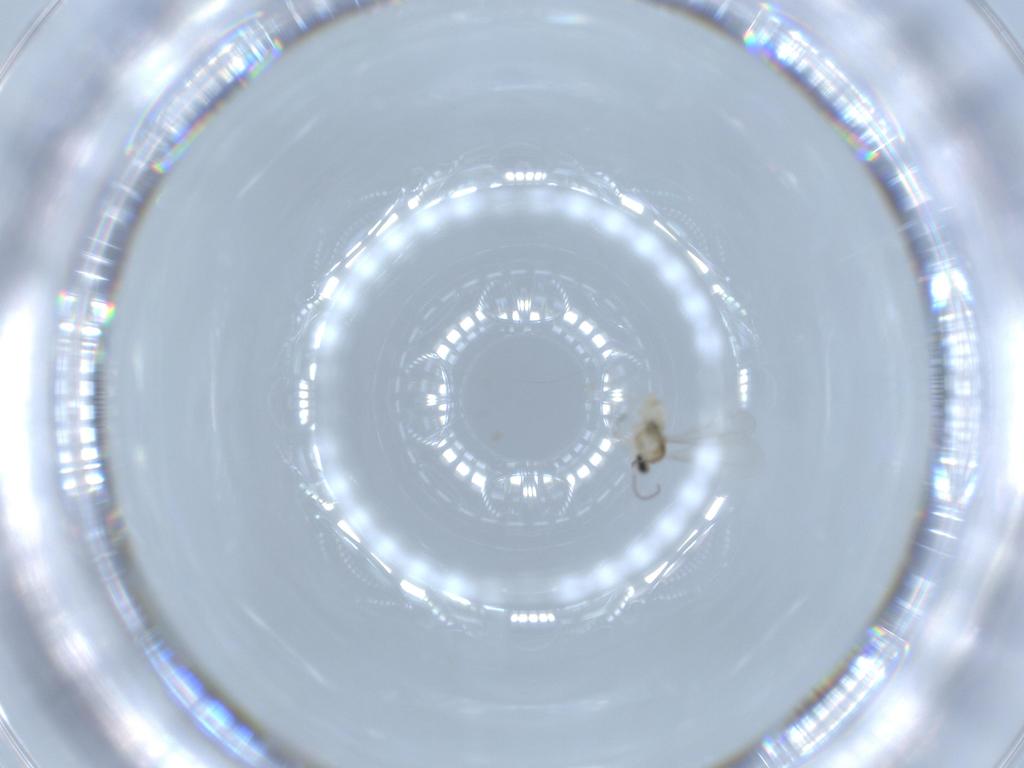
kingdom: Animalia
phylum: Arthropoda
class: Insecta
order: Diptera
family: Cecidomyiidae
